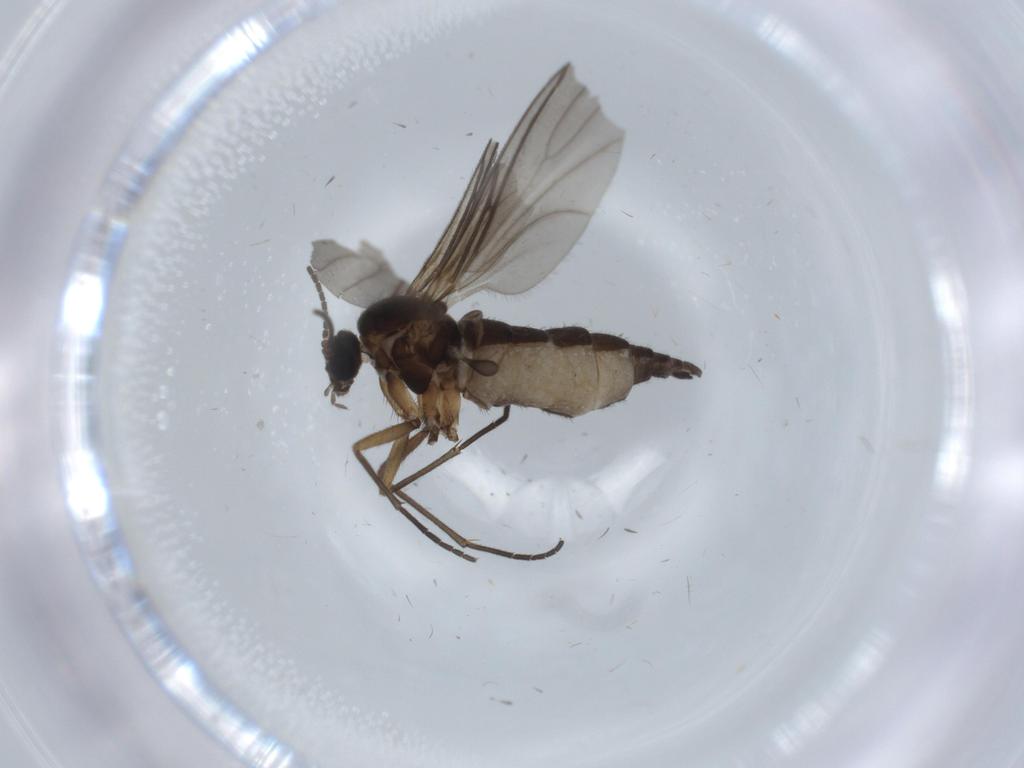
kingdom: Animalia
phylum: Arthropoda
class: Insecta
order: Diptera
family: Sciaridae
